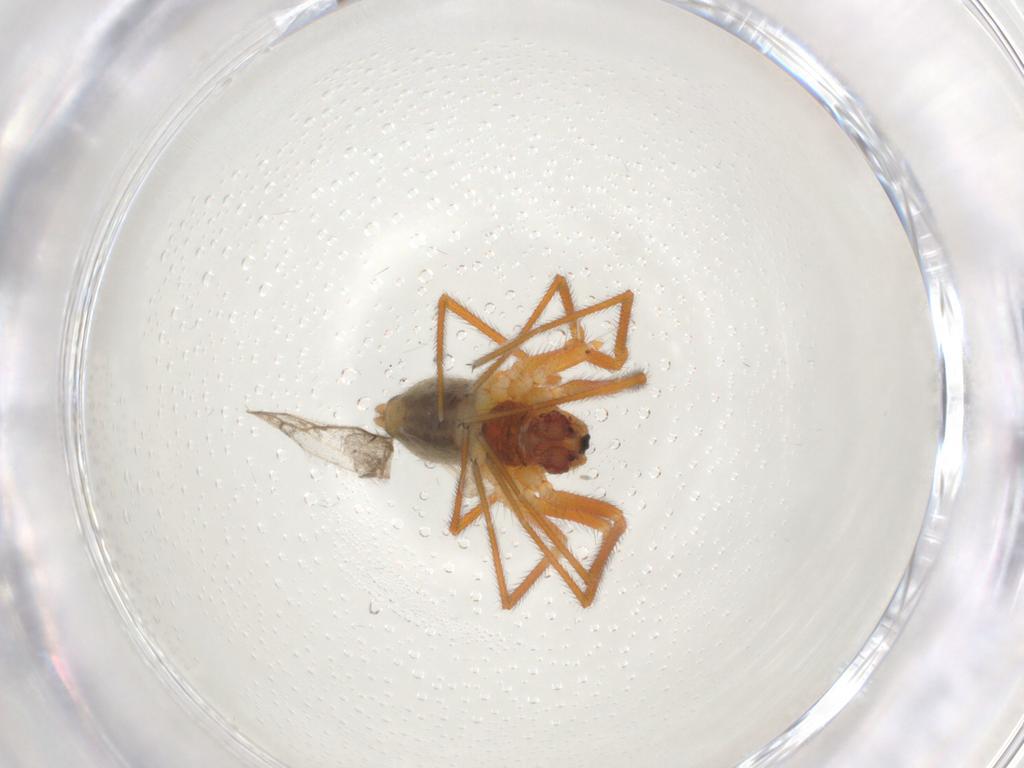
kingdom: Animalia
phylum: Arthropoda
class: Arachnida
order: Araneae
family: Linyphiidae
